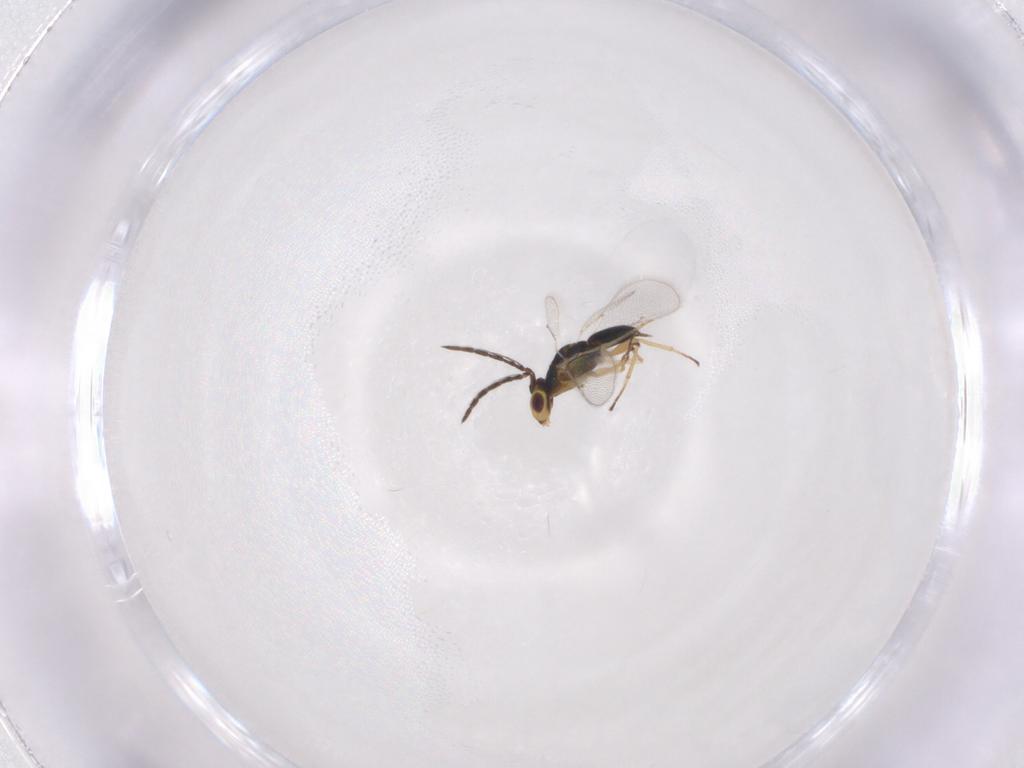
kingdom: Animalia
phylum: Arthropoda
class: Insecta
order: Hymenoptera
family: Eulophidae
